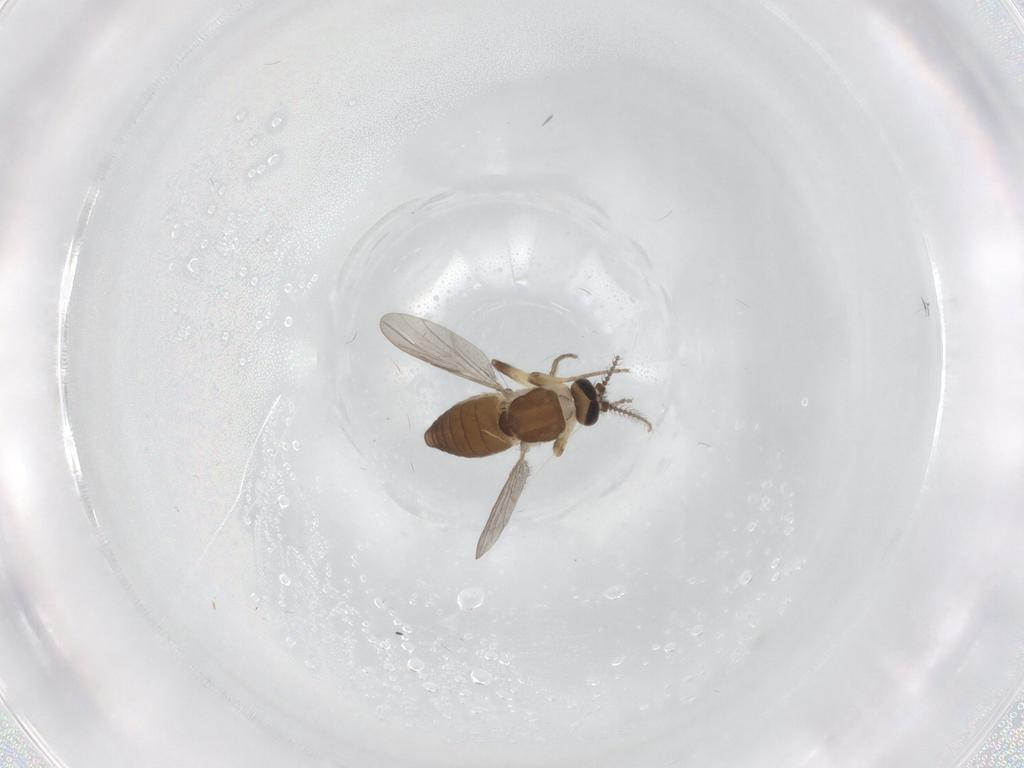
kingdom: Animalia
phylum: Arthropoda
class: Insecta
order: Diptera
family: Ceratopogonidae
